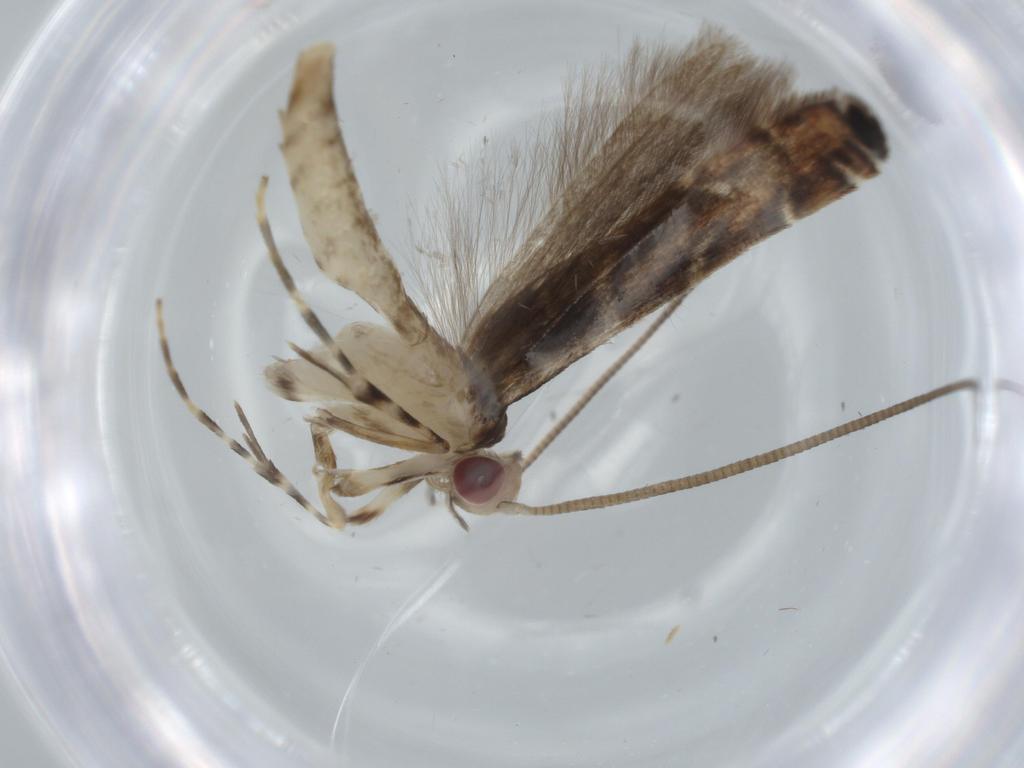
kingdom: Animalia
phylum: Arthropoda
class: Insecta
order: Lepidoptera
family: Gracillariidae
